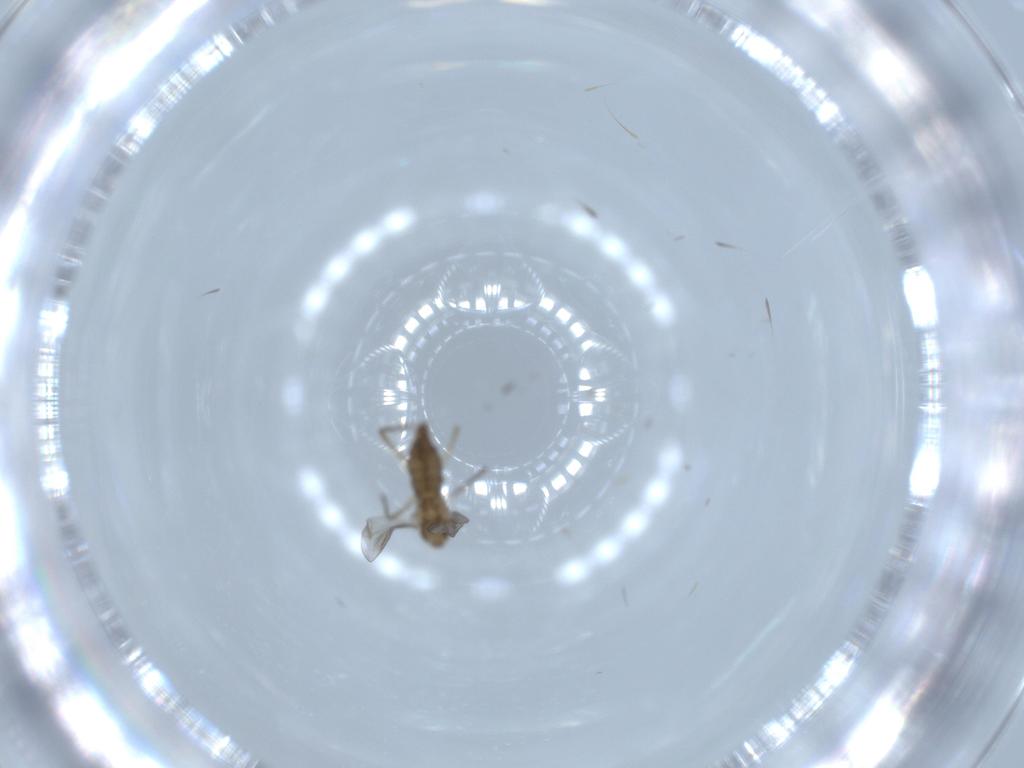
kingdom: Animalia
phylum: Arthropoda
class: Insecta
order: Diptera
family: Chironomidae
